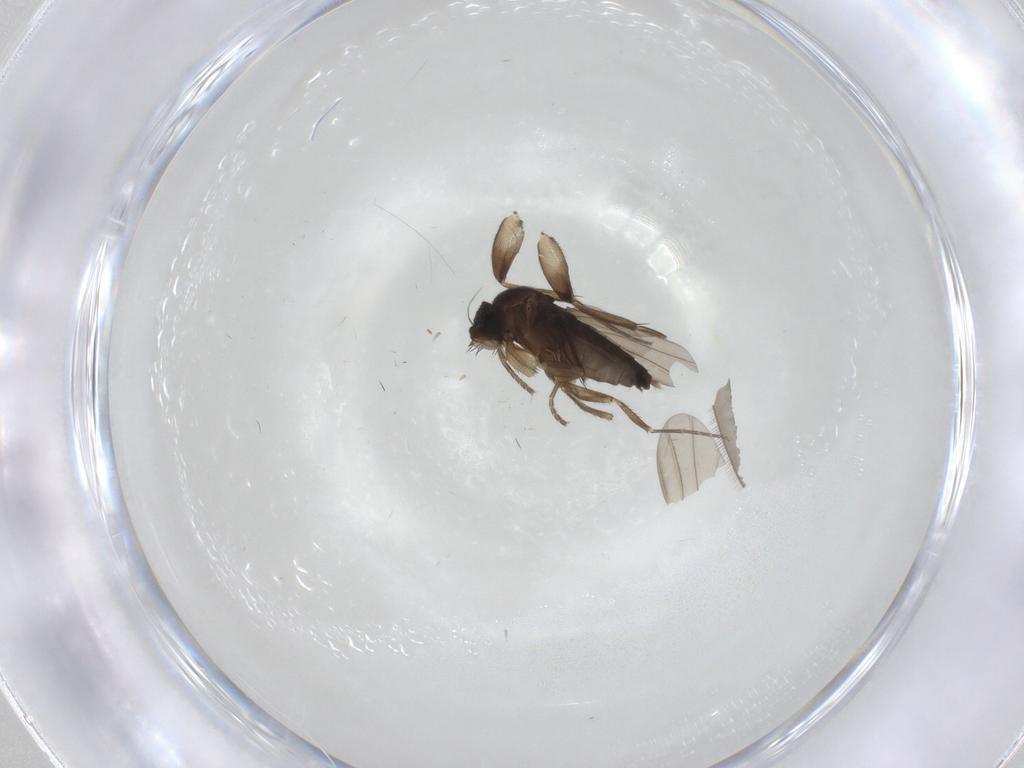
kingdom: Animalia
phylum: Arthropoda
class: Insecta
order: Diptera
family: Phoridae
